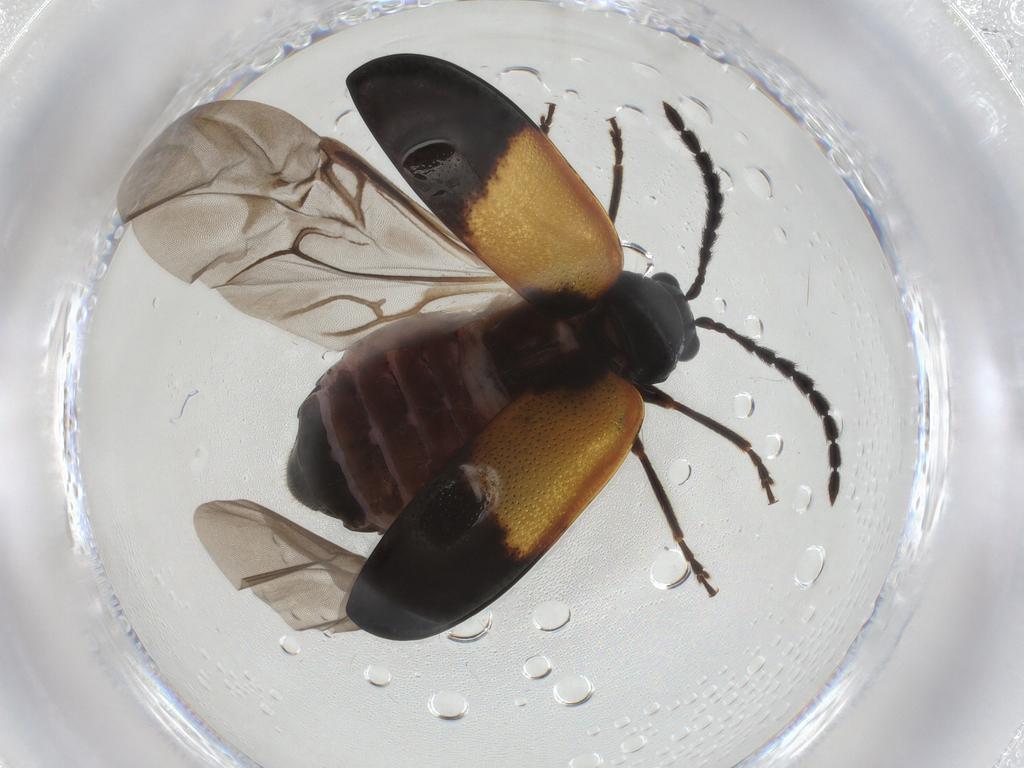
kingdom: Animalia
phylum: Arthropoda
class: Insecta
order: Coleoptera
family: Chrysomelidae
